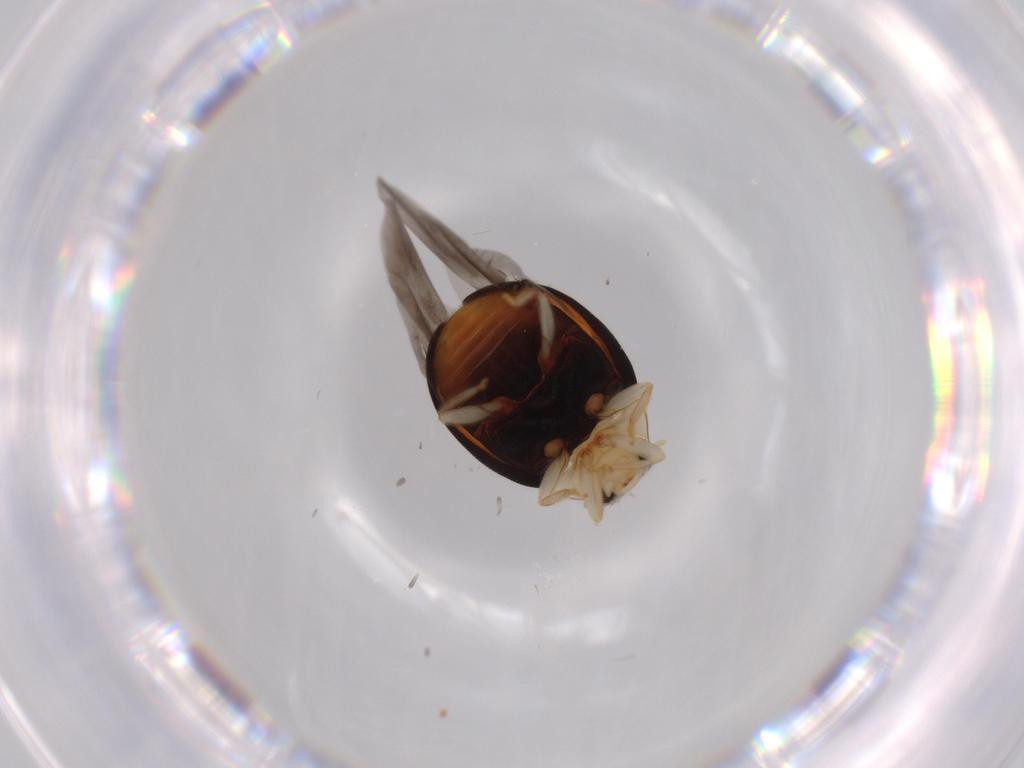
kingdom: Animalia
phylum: Arthropoda
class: Insecta
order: Coleoptera
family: Coccinellidae
